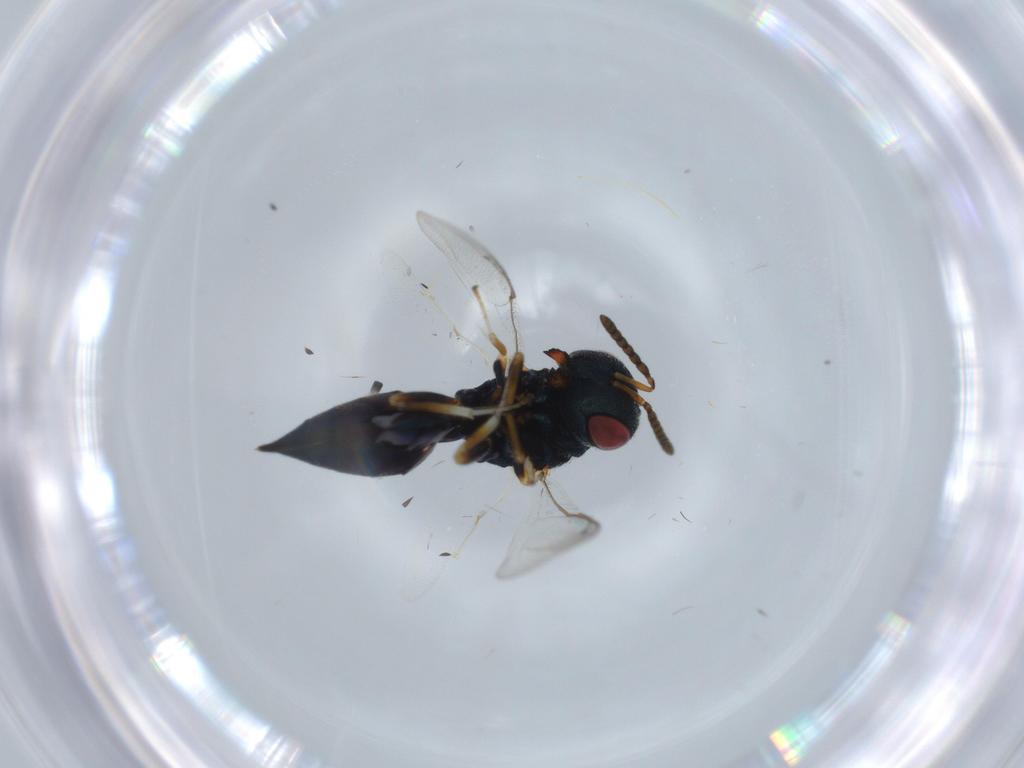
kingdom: Animalia
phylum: Arthropoda
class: Insecta
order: Hymenoptera
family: Pteromalidae
